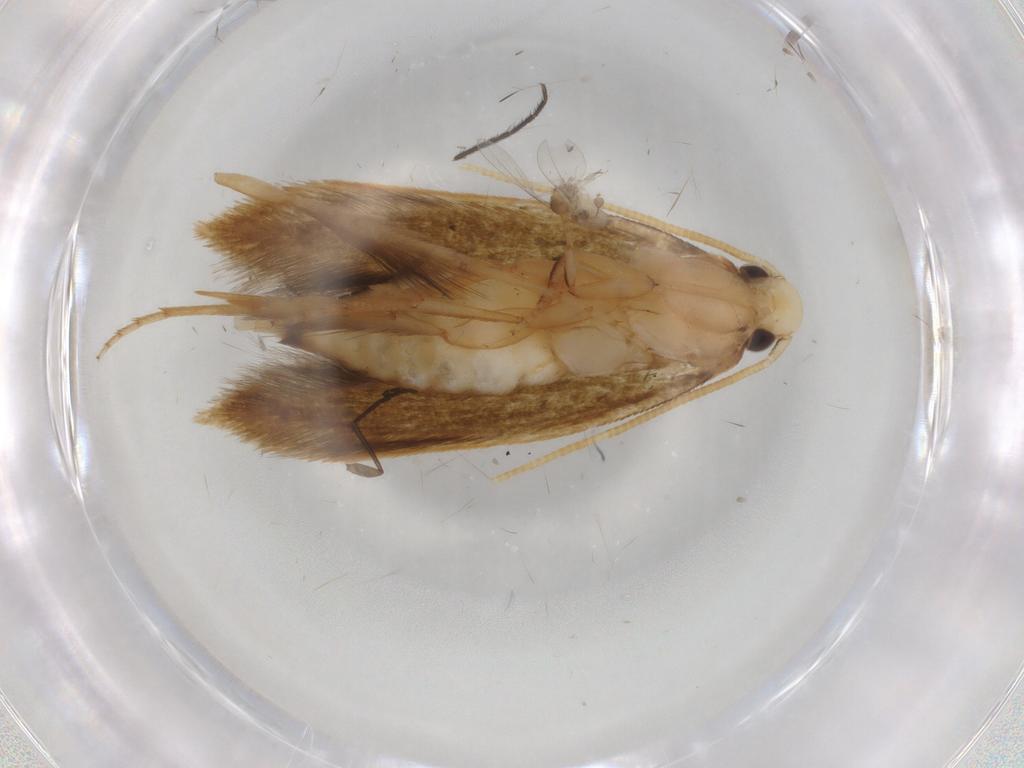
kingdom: Animalia
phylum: Arthropoda
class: Insecta
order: Lepidoptera
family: Tineidae
